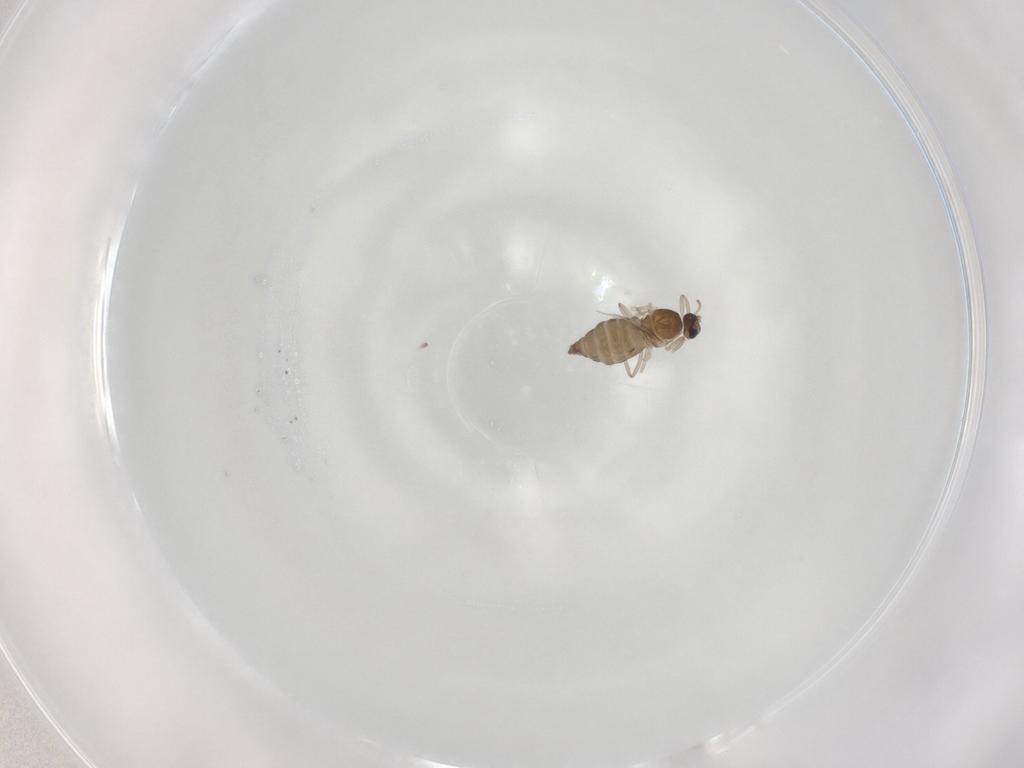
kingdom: Animalia
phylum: Arthropoda
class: Insecta
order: Diptera
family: Cecidomyiidae
